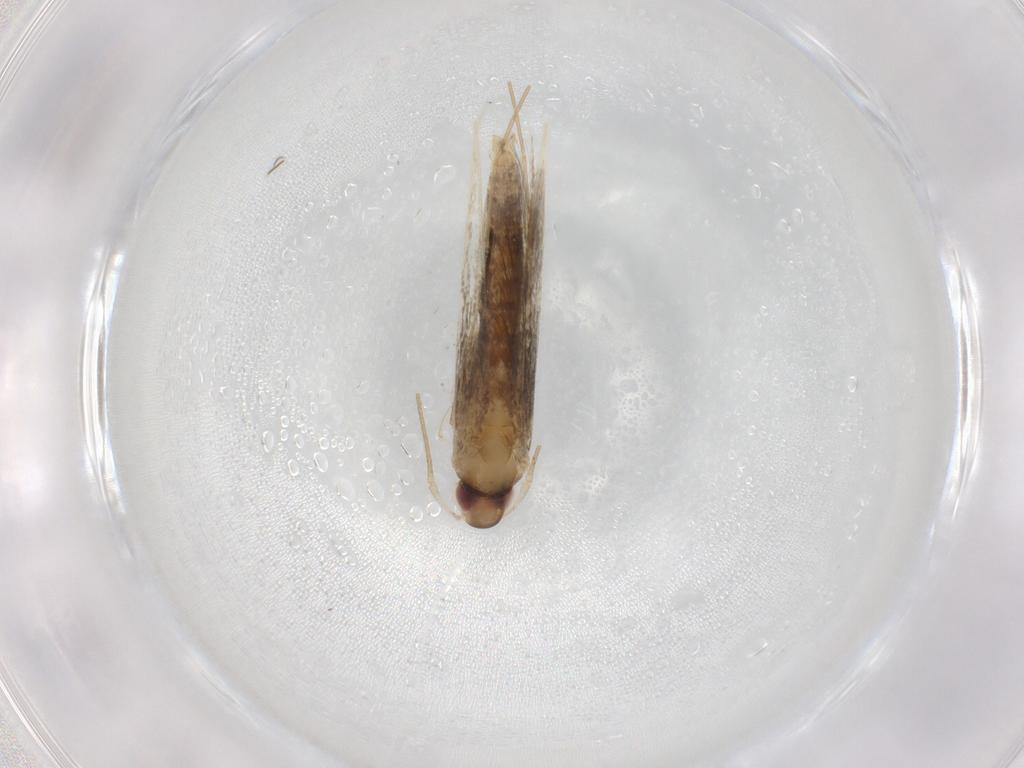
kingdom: Animalia
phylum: Arthropoda
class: Insecta
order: Lepidoptera
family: Cosmopterigidae
